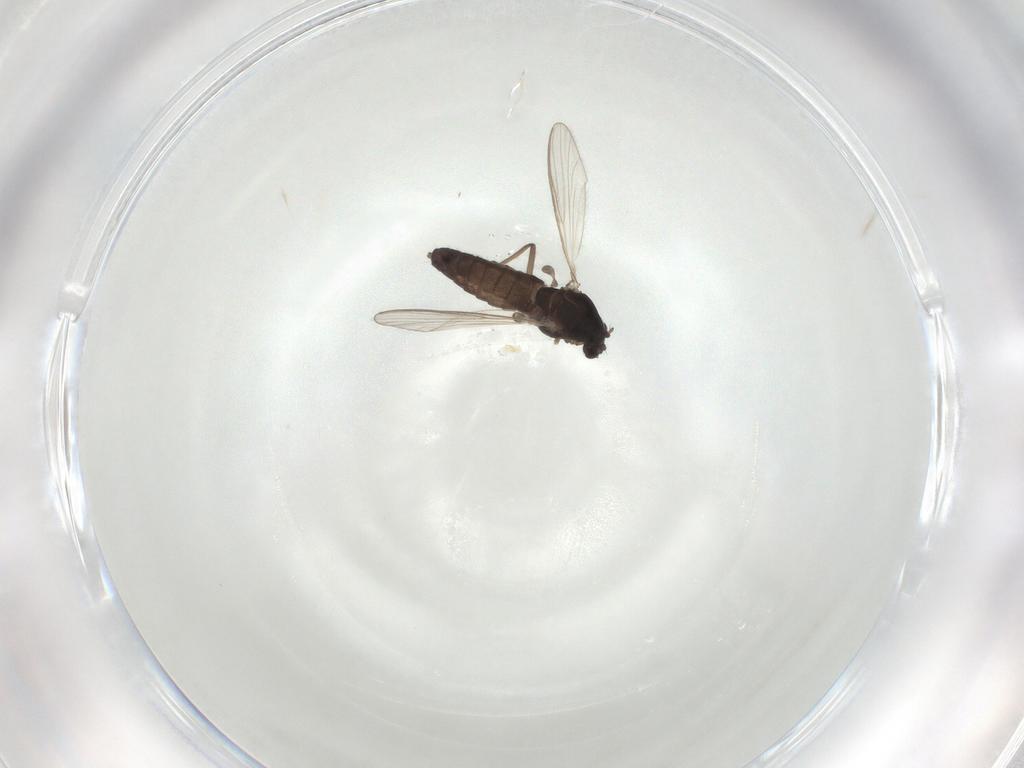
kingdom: Animalia
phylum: Arthropoda
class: Insecta
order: Diptera
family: Chironomidae
